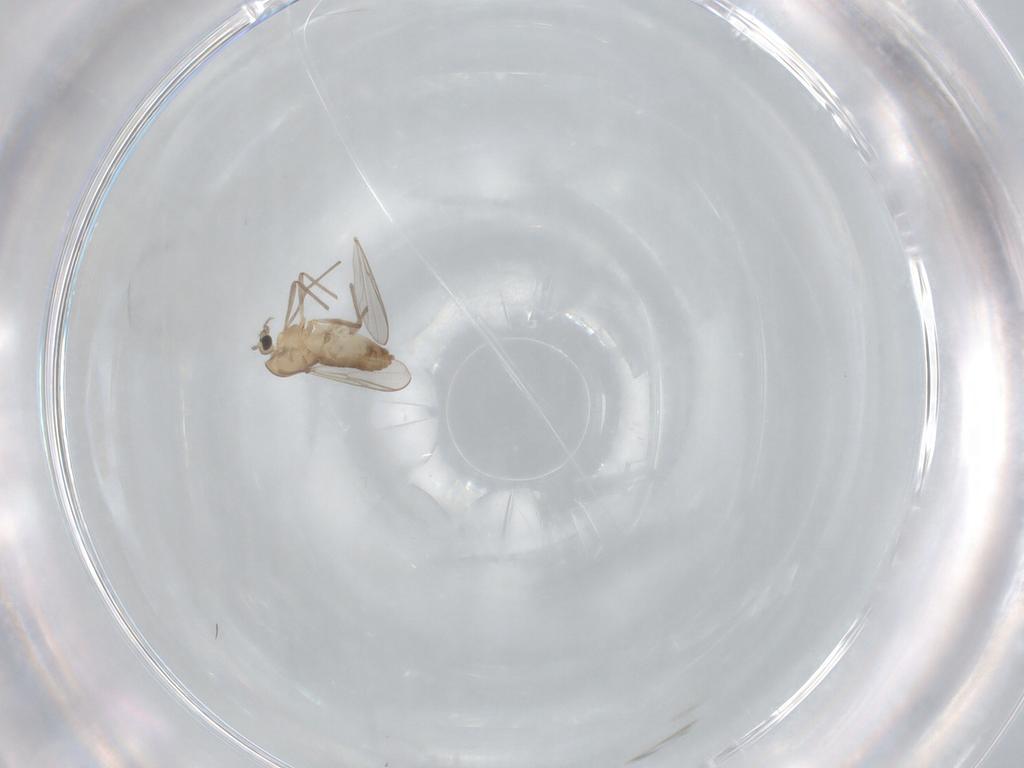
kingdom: Animalia
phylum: Arthropoda
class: Insecta
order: Diptera
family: Chironomidae
